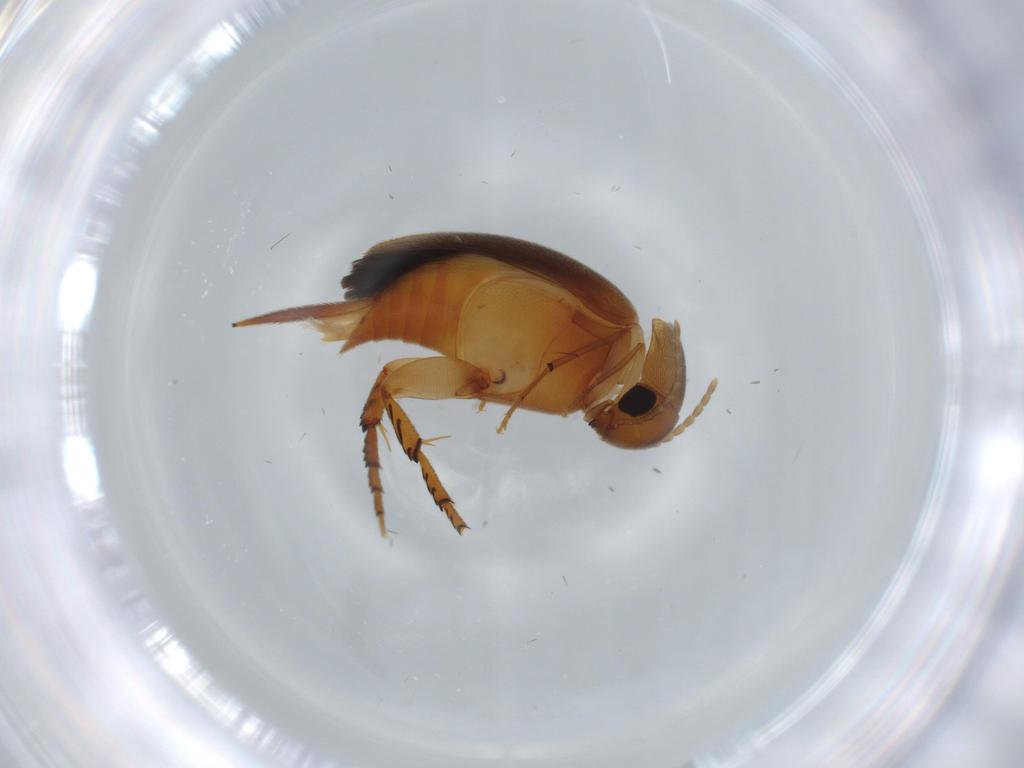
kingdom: Animalia
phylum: Arthropoda
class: Insecta
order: Coleoptera
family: Mordellidae
